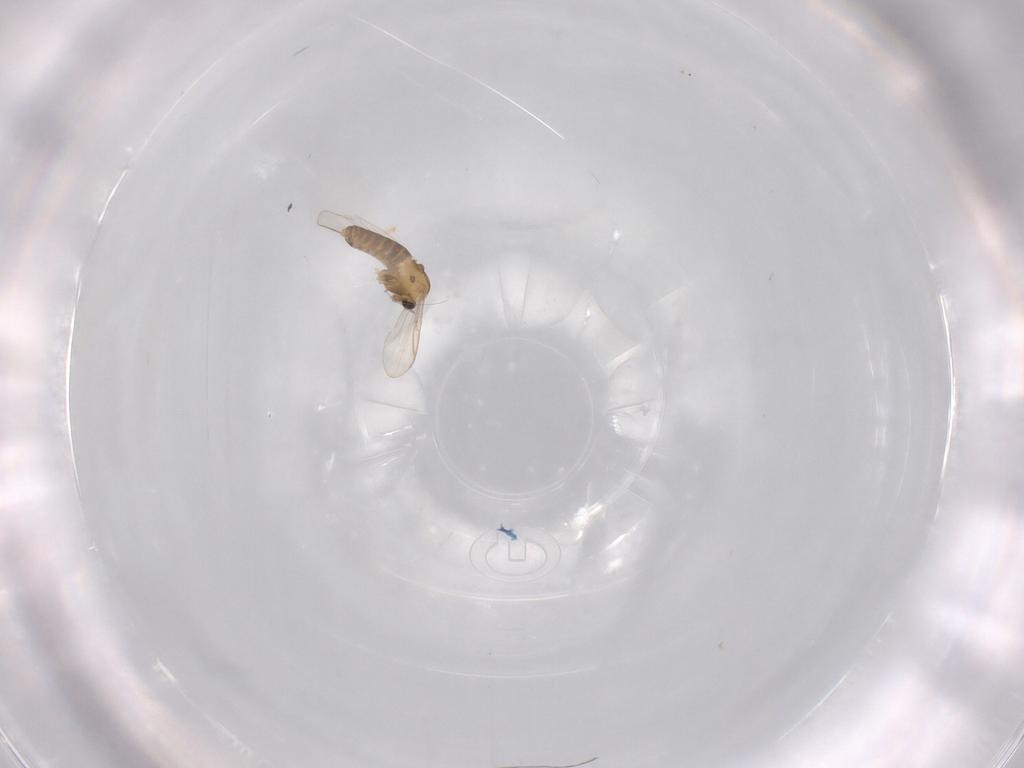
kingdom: Animalia
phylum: Arthropoda
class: Insecta
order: Diptera
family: Chironomidae
